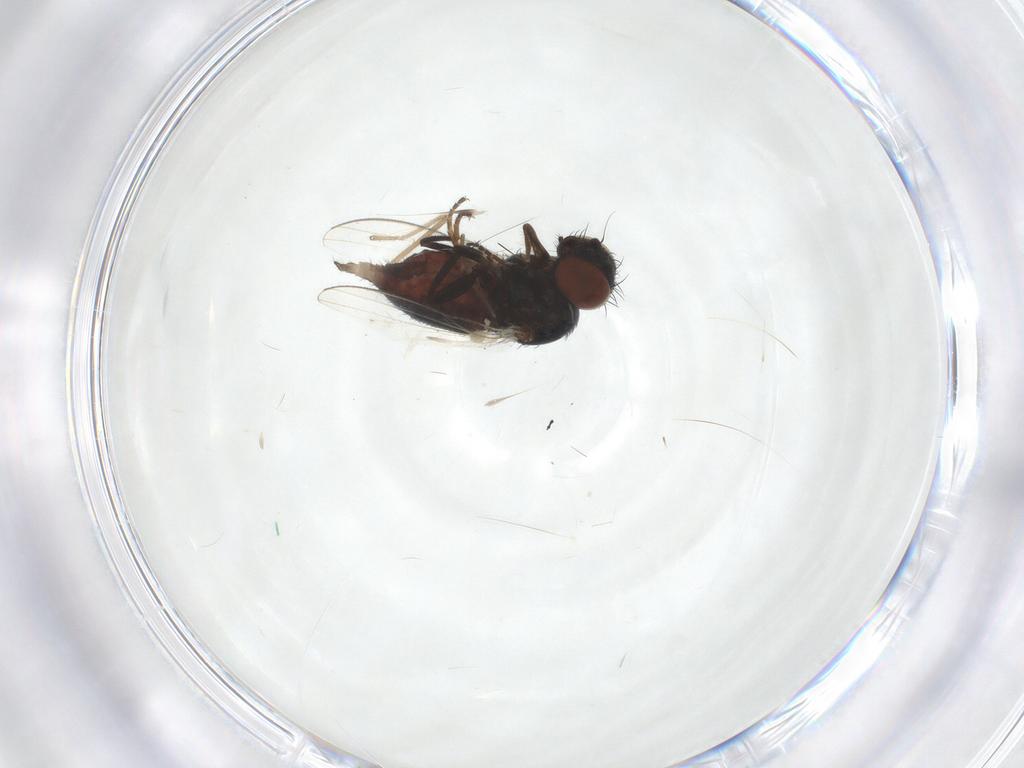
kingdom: Animalia
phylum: Arthropoda
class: Insecta
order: Diptera
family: Milichiidae
